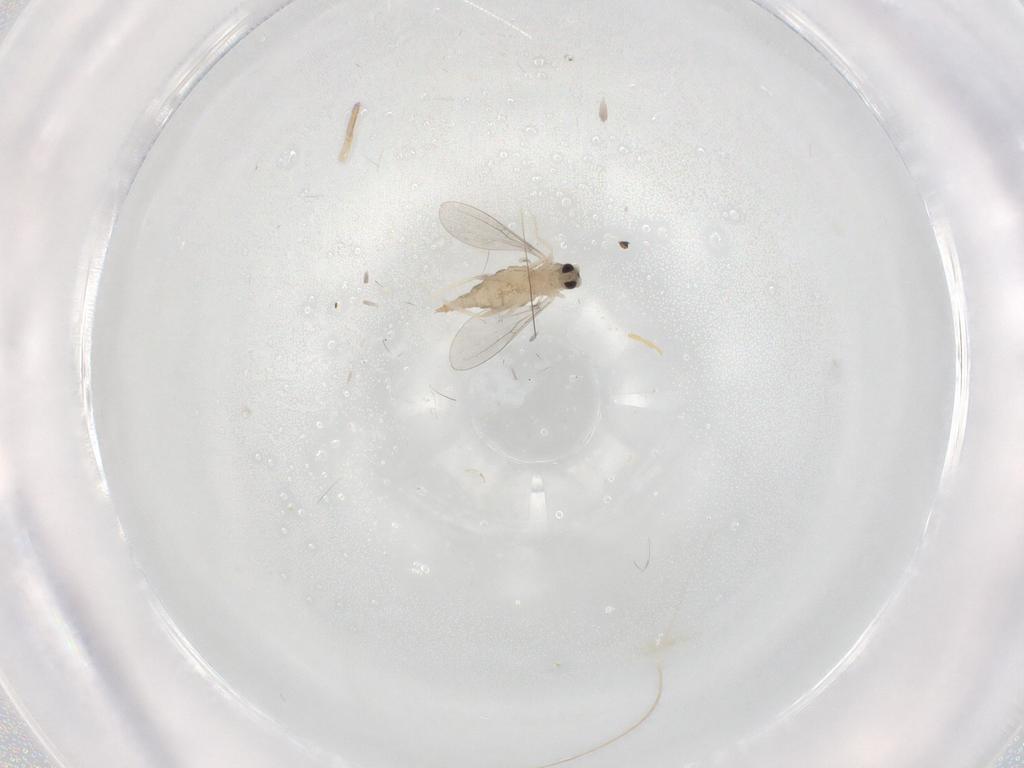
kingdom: Animalia
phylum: Arthropoda
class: Insecta
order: Diptera
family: Cecidomyiidae
